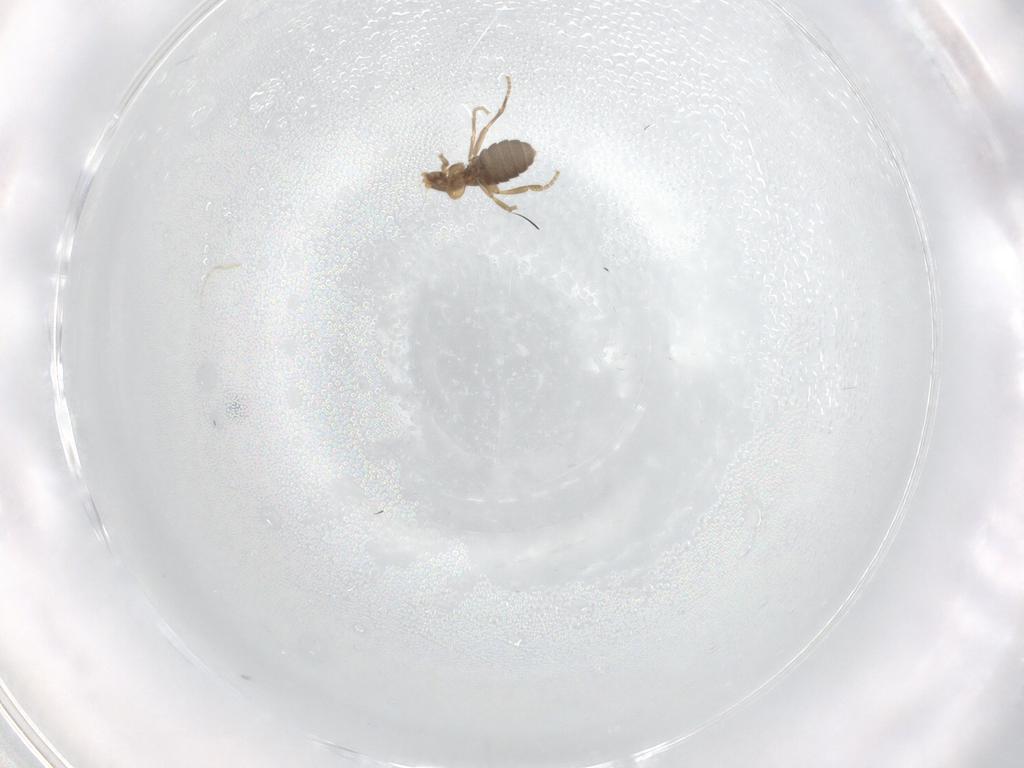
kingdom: Animalia
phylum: Arthropoda
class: Insecta
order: Diptera
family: Phoridae
